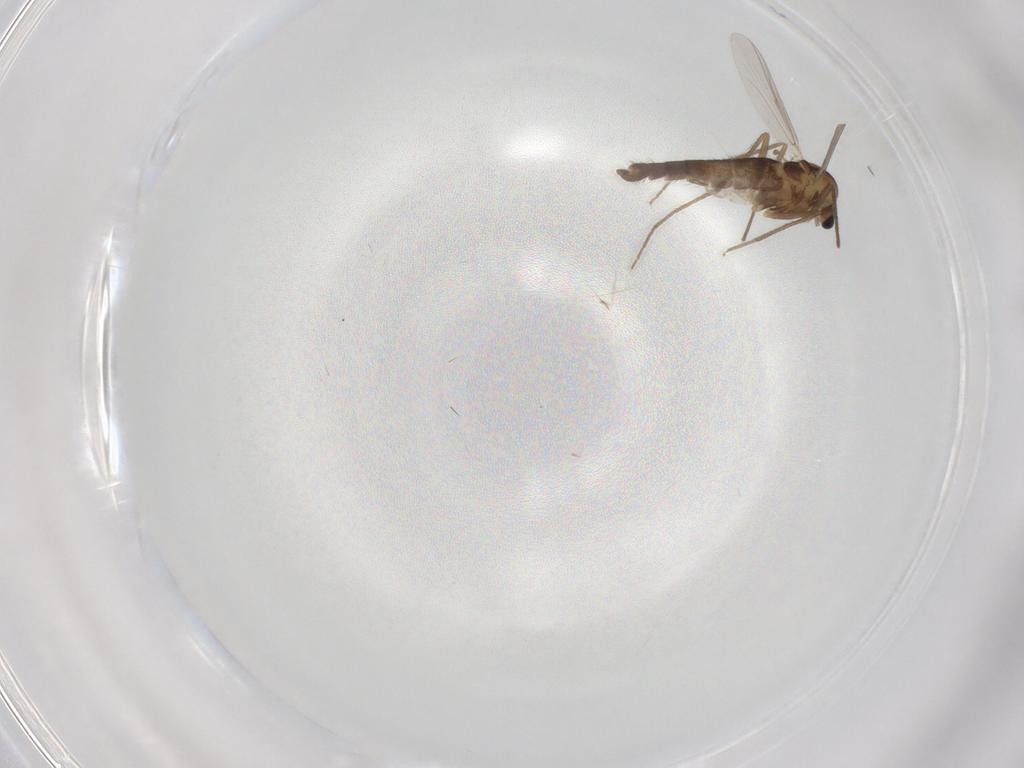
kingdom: Animalia
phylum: Arthropoda
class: Insecta
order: Diptera
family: Chironomidae
